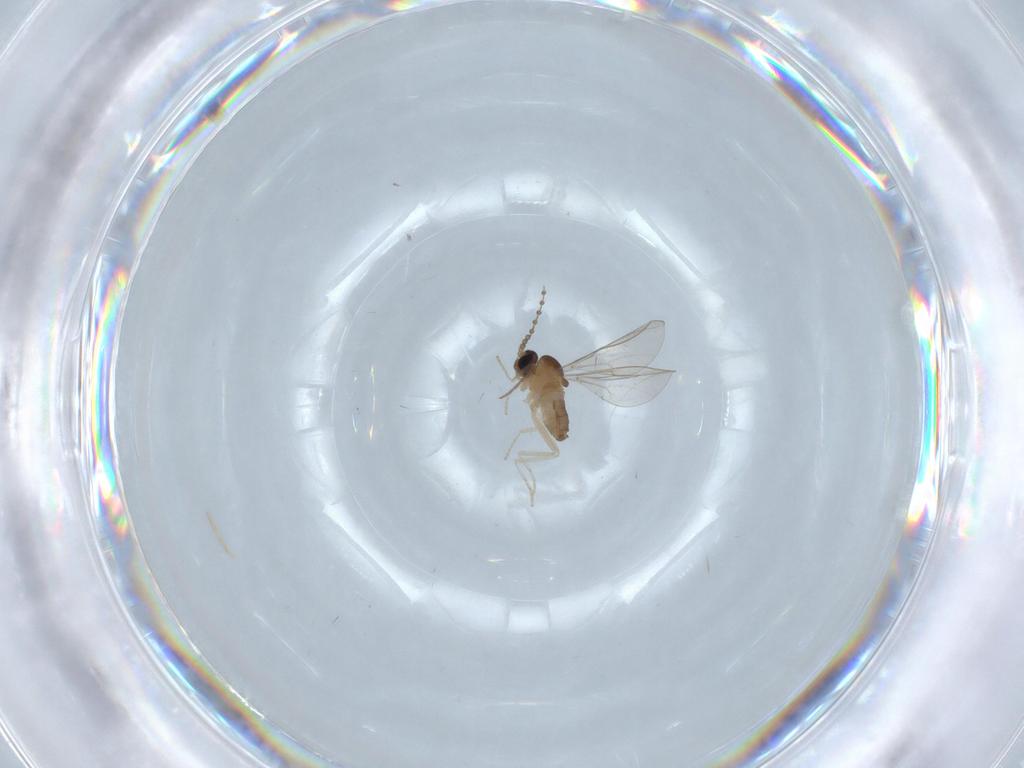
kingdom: Animalia
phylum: Arthropoda
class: Insecta
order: Diptera
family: Cecidomyiidae
